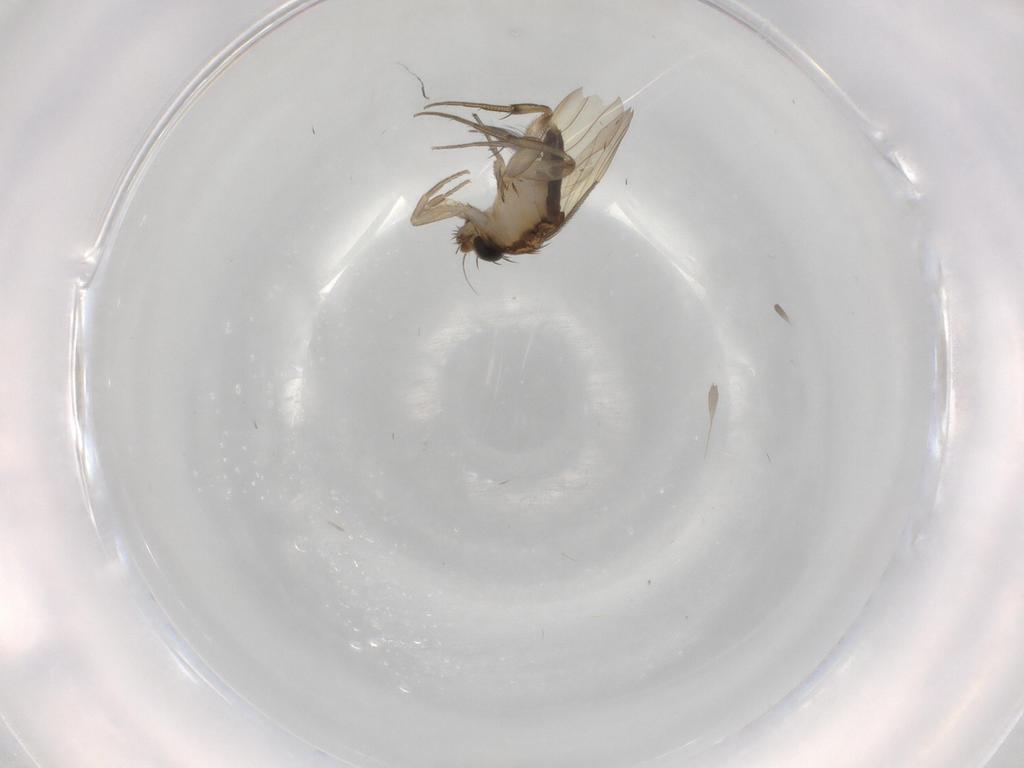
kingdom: Animalia
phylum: Arthropoda
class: Insecta
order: Diptera
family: Phoridae
